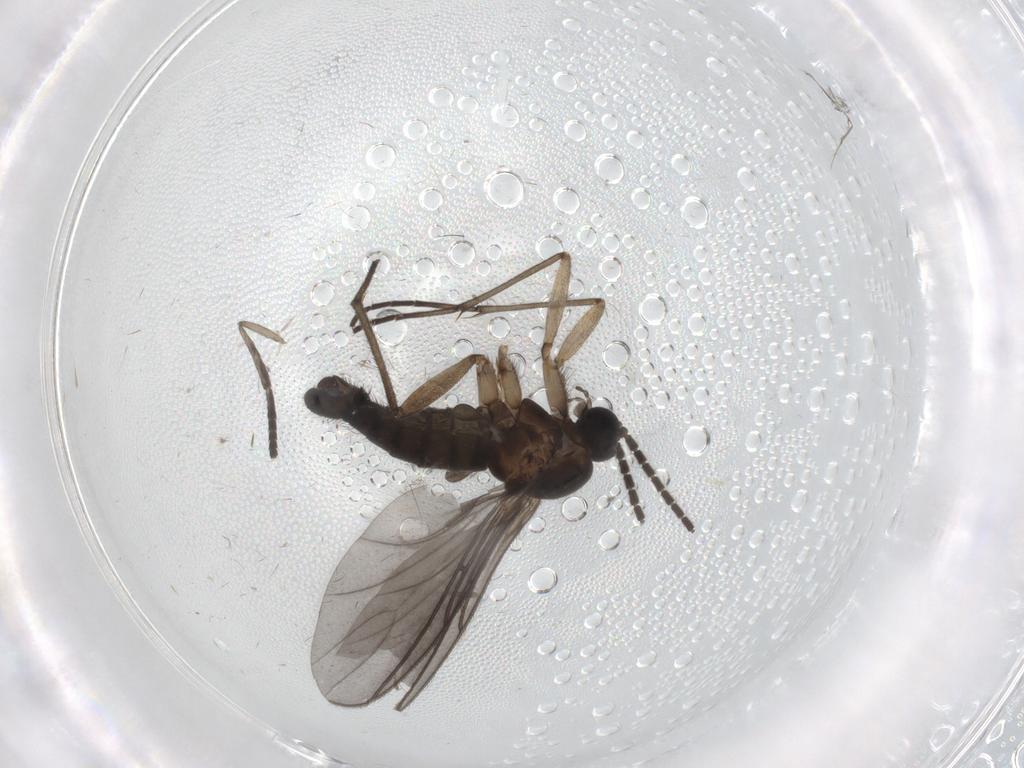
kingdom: Animalia
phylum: Arthropoda
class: Insecta
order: Diptera
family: Sciaridae
